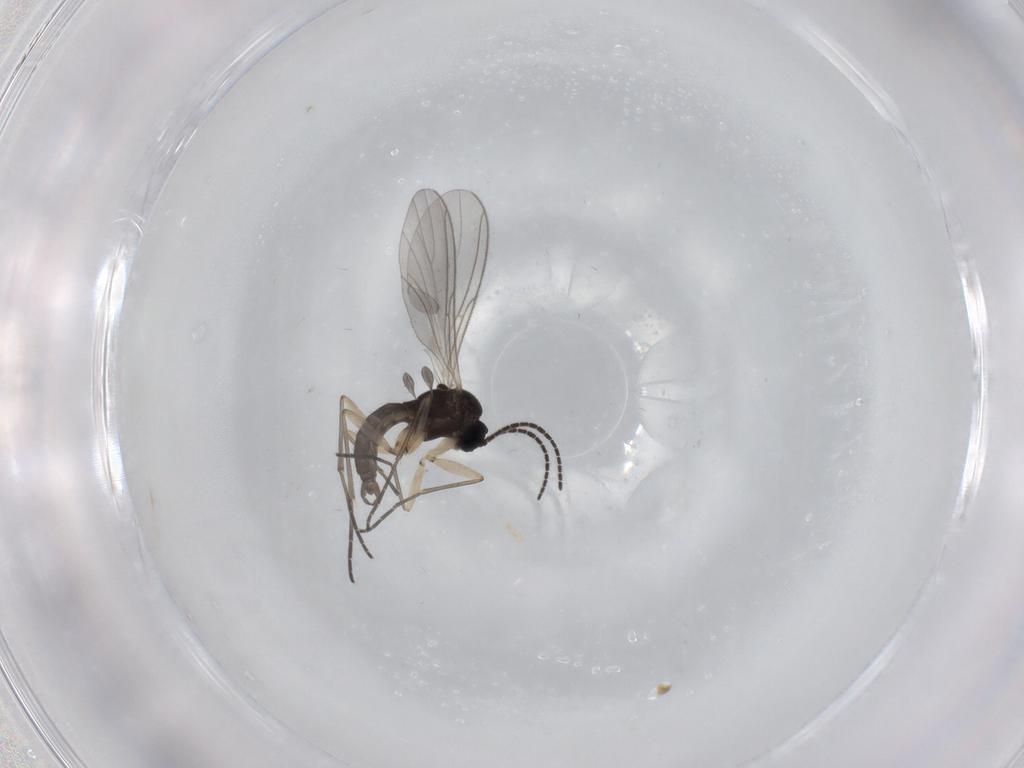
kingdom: Animalia
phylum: Arthropoda
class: Insecta
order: Diptera
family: Sciaridae
